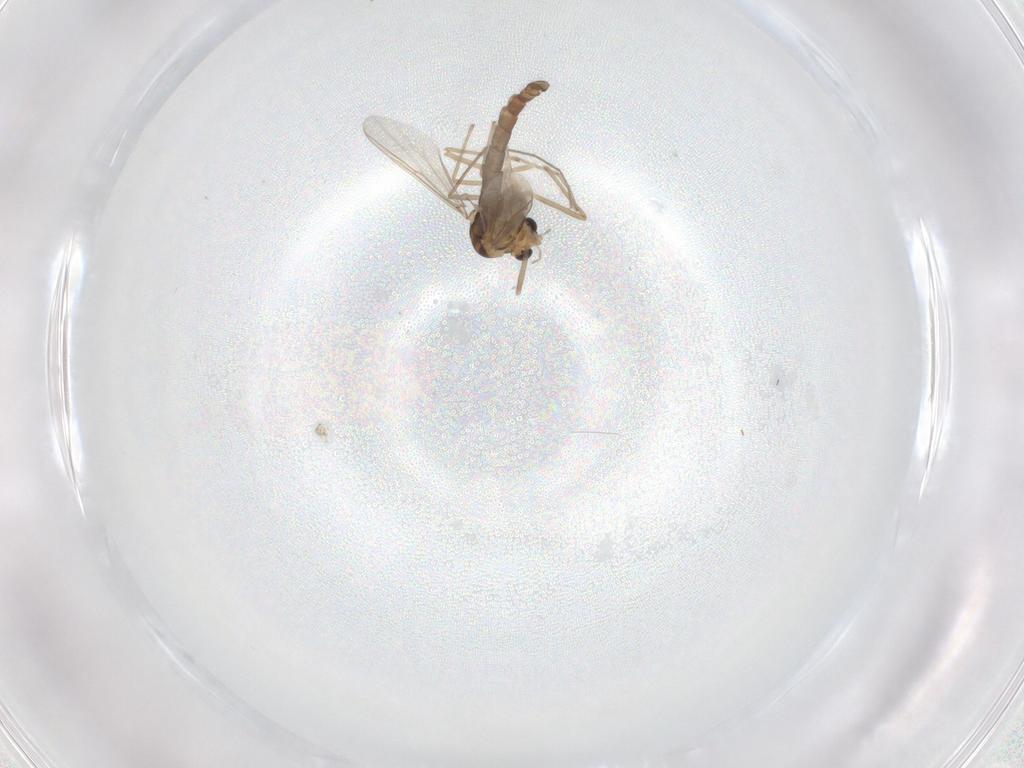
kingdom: Animalia
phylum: Arthropoda
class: Insecta
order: Diptera
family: Chironomidae
